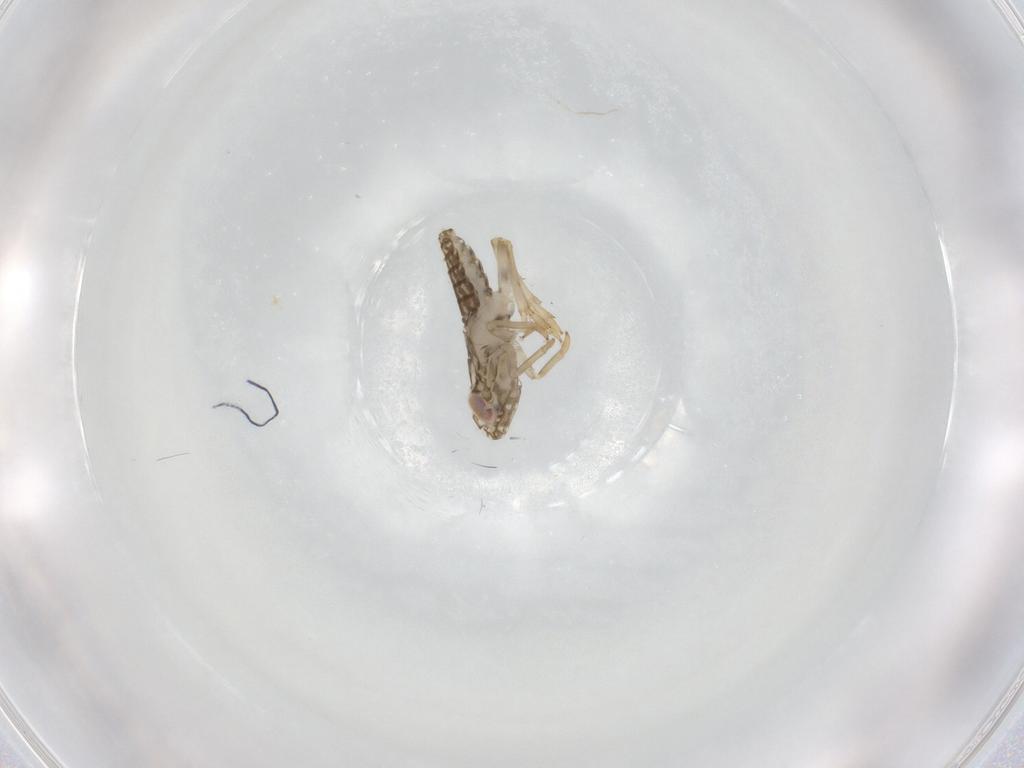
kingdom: Animalia
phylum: Arthropoda
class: Insecta
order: Hemiptera
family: Delphacidae
